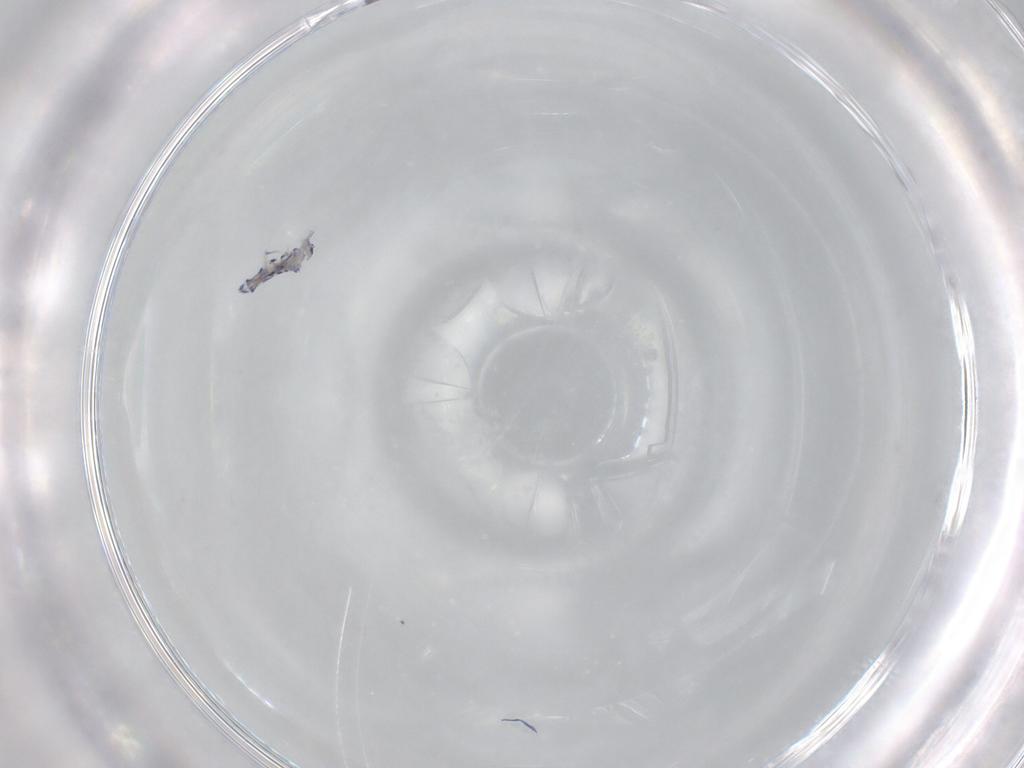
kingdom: Animalia
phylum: Arthropoda
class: Collembola
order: Entomobryomorpha
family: Entomobryidae
